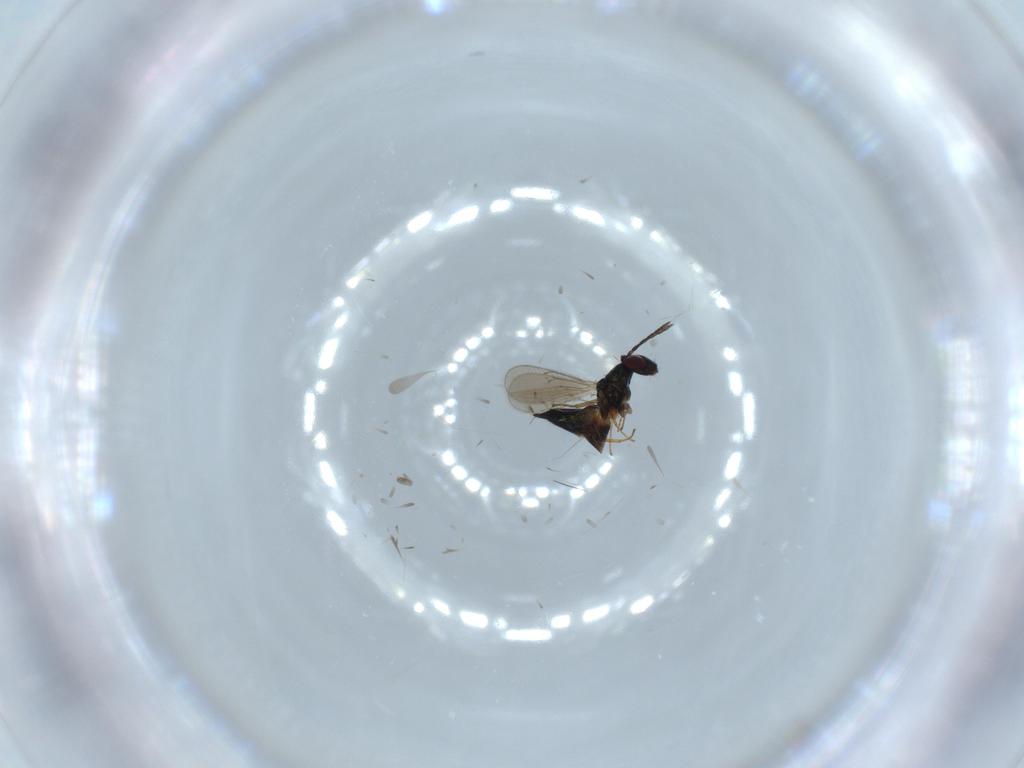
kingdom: Animalia
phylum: Arthropoda
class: Insecta
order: Hymenoptera
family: Eulophidae
